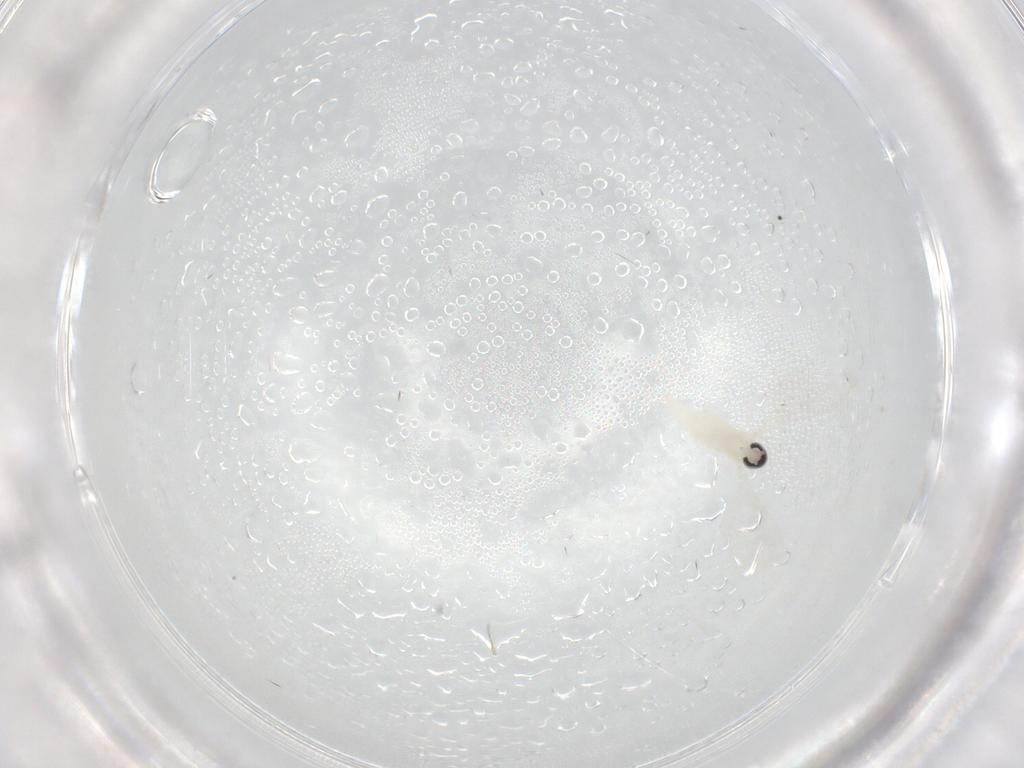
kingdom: Animalia
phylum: Arthropoda
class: Insecta
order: Diptera
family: Cecidomyiidae
